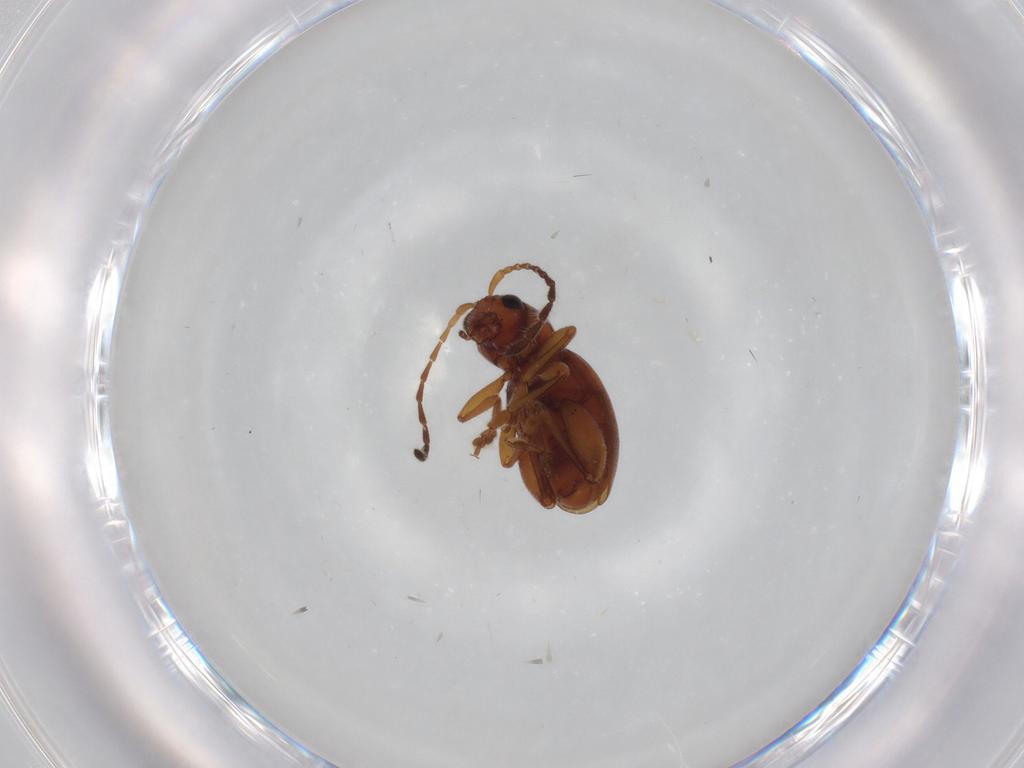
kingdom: Animalia
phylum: Arthropoda
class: Insecta
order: Coleoptera
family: Chrysomelidae
